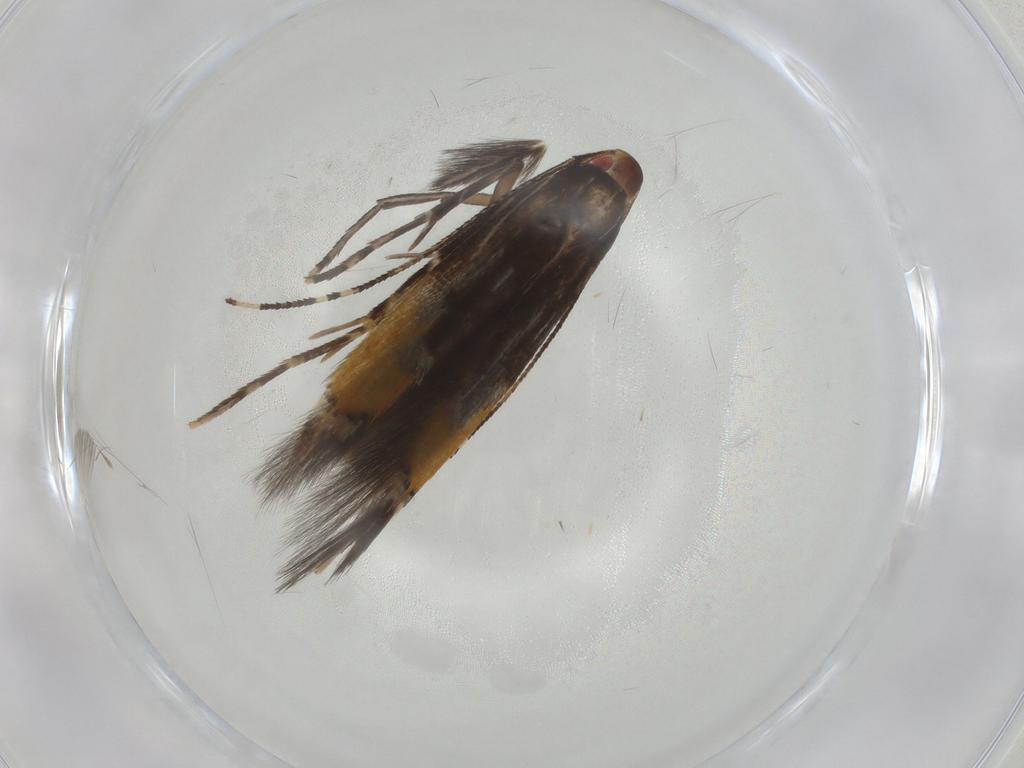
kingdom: Animalia
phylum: Arthropoda
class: Insecta
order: Lepidoptera
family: Cosmopterigidae
